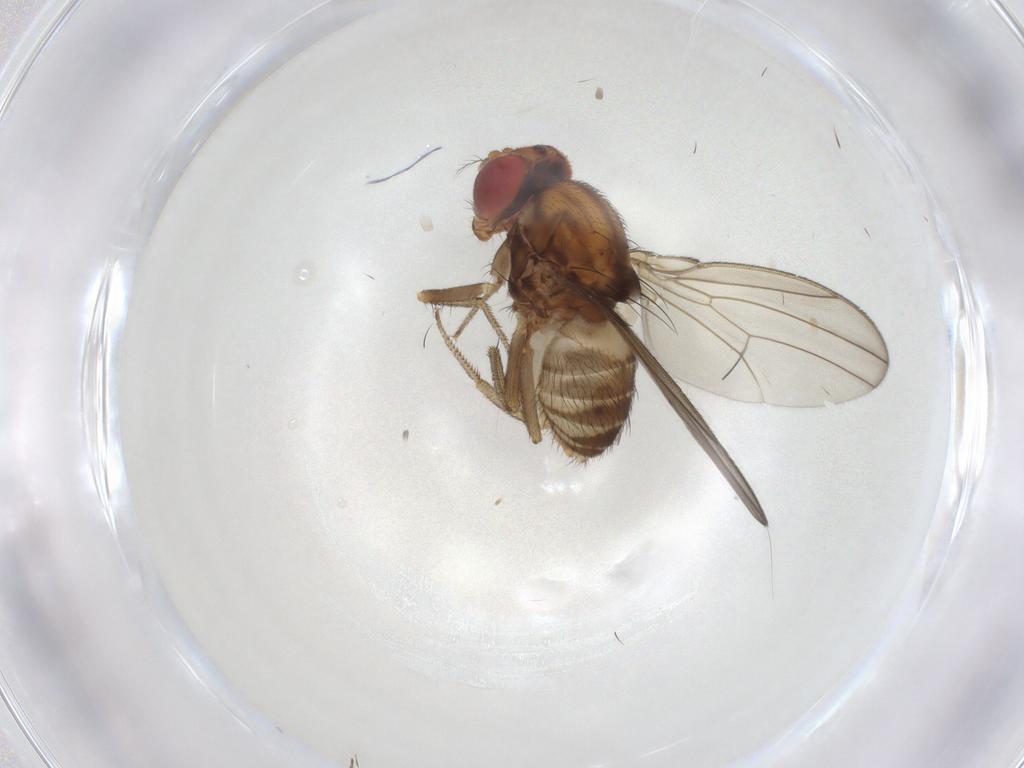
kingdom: Animalia
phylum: Arthropoda
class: Insecta
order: Diptera
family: Drosophilidae
